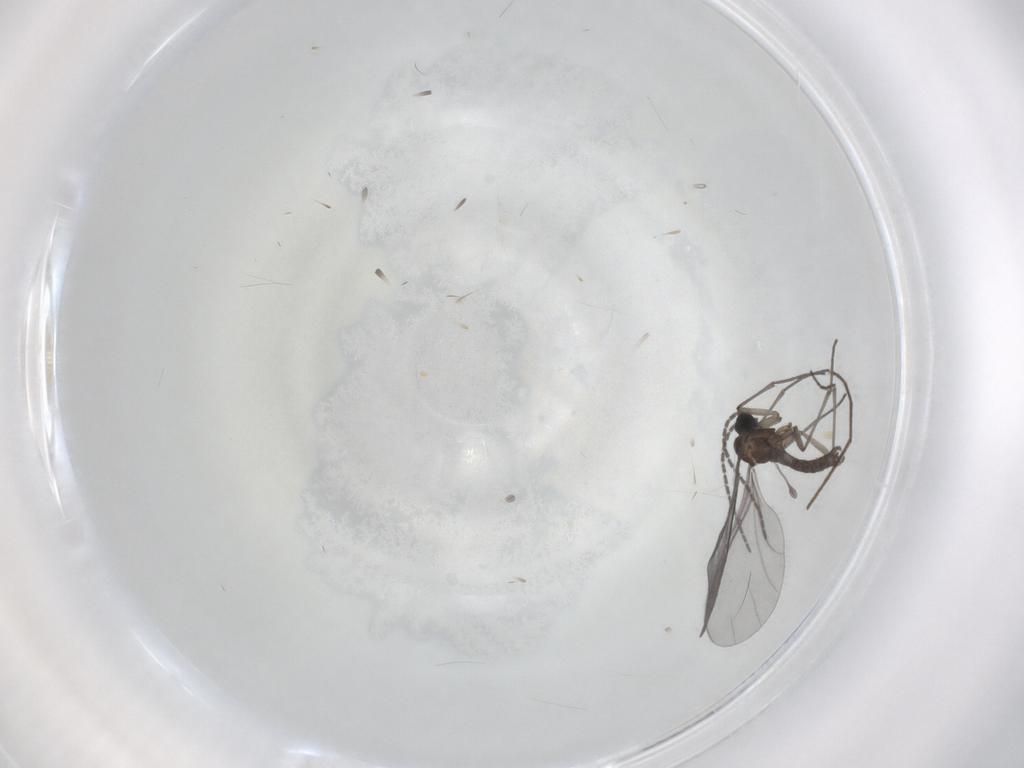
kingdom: Animalia
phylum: Arthropoda
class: Insecta
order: Diptera
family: Sciaridae
